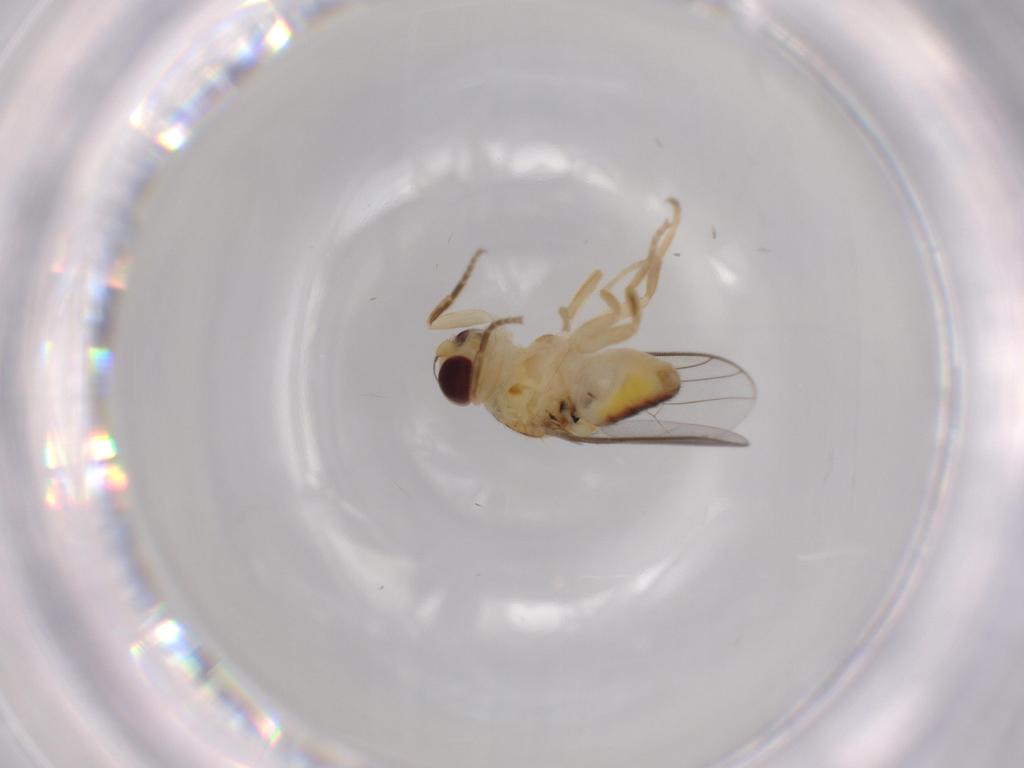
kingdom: Animalia
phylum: Arthropoda
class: Insecta
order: Diptera
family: Chloropidae
